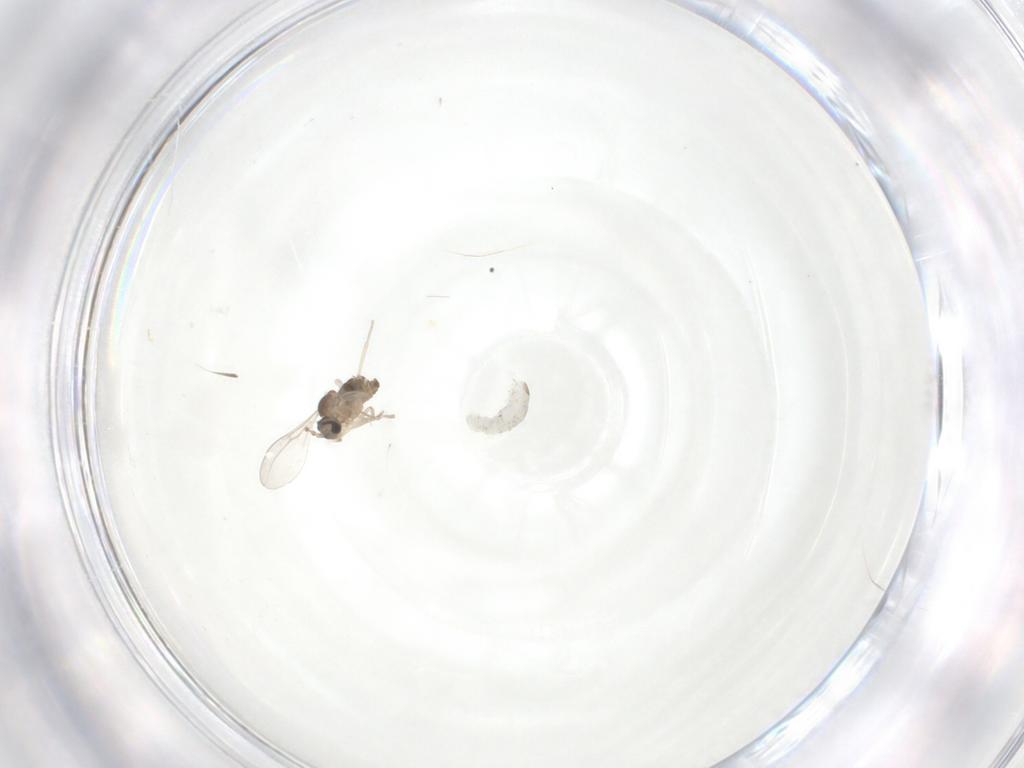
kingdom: Animalia
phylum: Arthropoda
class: Insecta
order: Diptera
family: Cecidomyiidae
